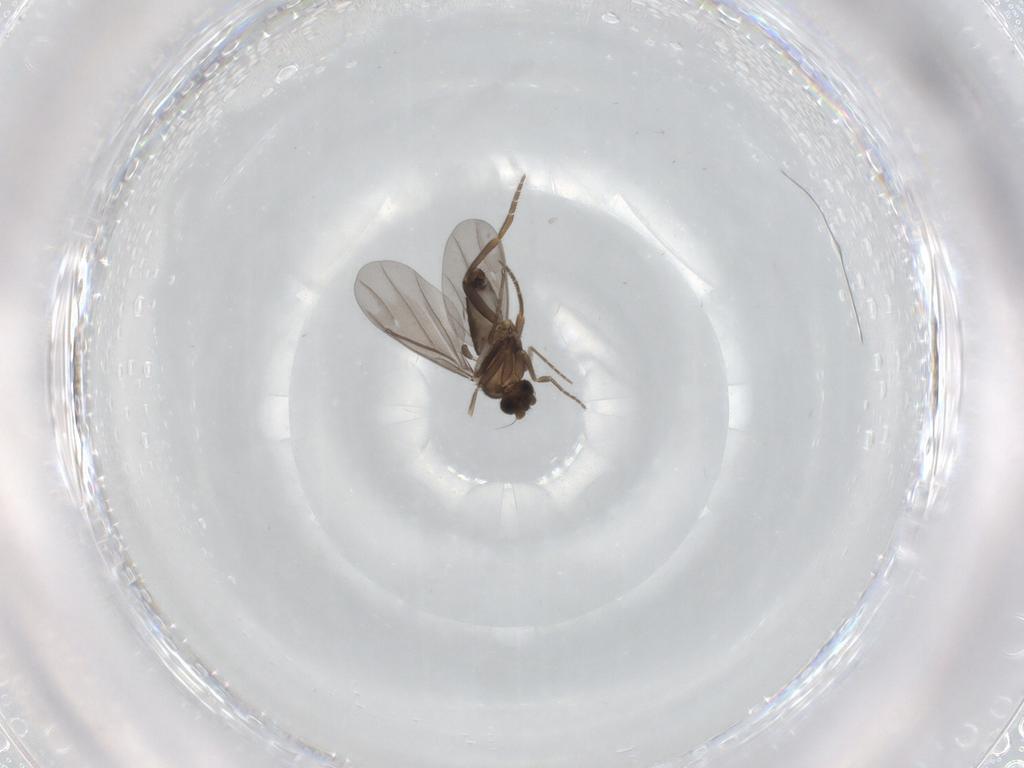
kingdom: Animalia
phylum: Arthropoda
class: Insecta
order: Diptera
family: Phoridae
